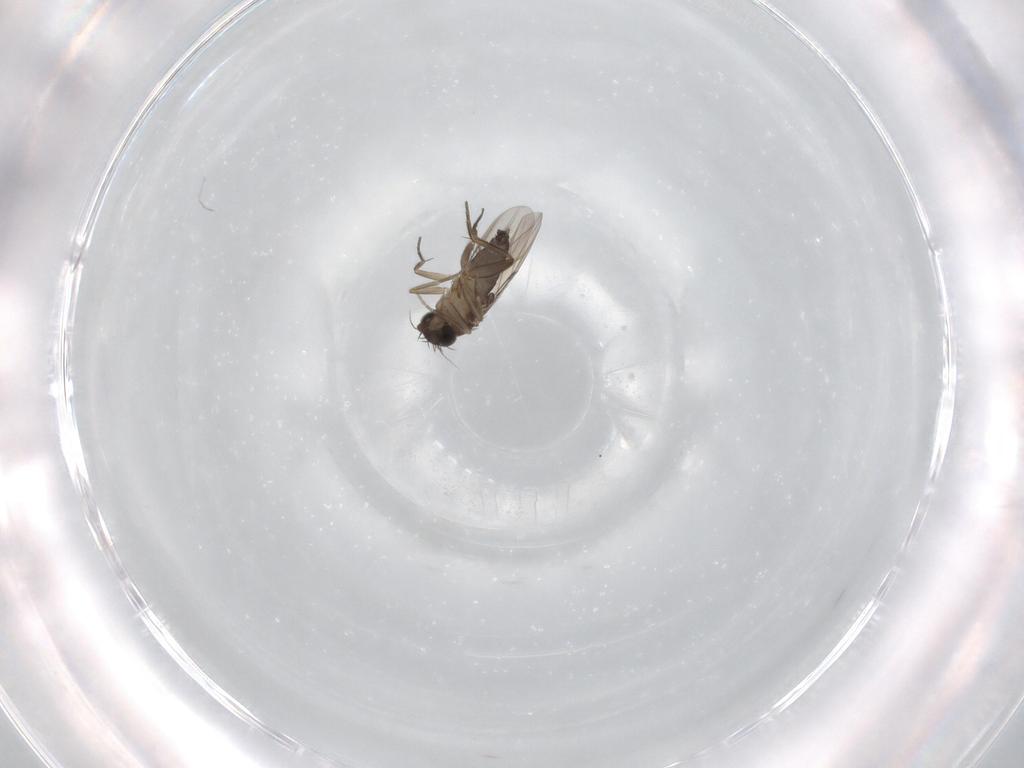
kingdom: Animalia
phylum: Arthropoda
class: Insecta
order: Diptera
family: Phoridae
